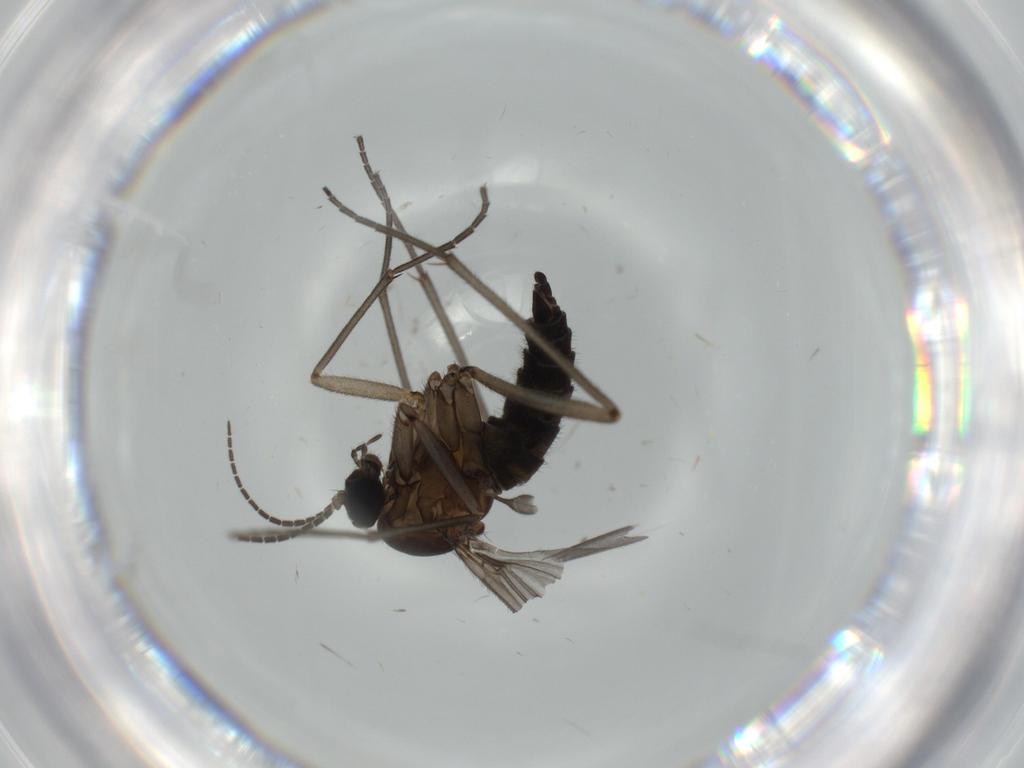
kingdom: Animalia
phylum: Arthropoda
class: Insecta
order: Diptera
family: Sciaridae
